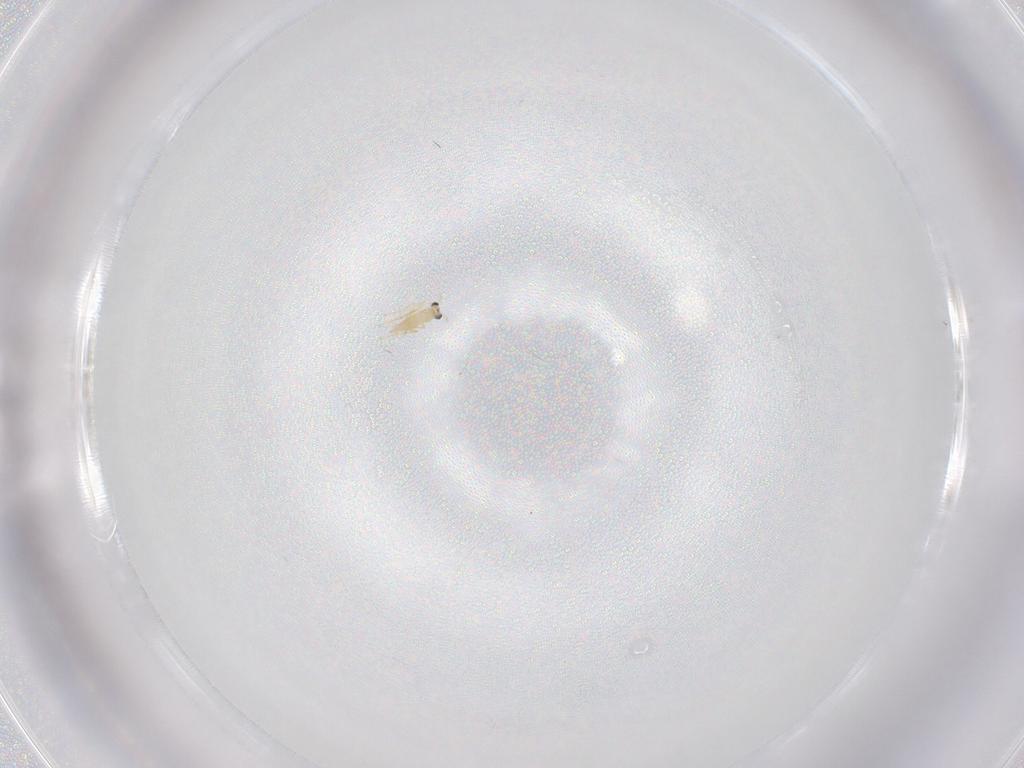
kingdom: Animalia
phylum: Arthropoda
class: Insecta
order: Hymenoptera
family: Mymaridae
